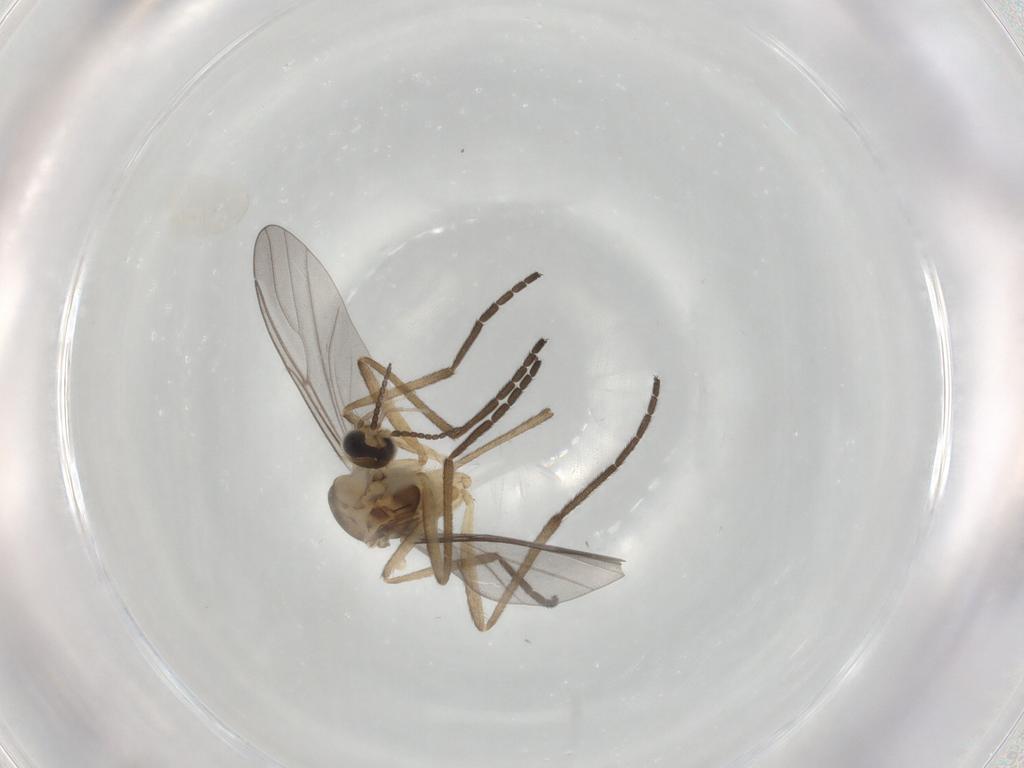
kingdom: Animalia
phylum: Arthropoda
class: Insecta
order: Diptera
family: Cecidomyiidae
